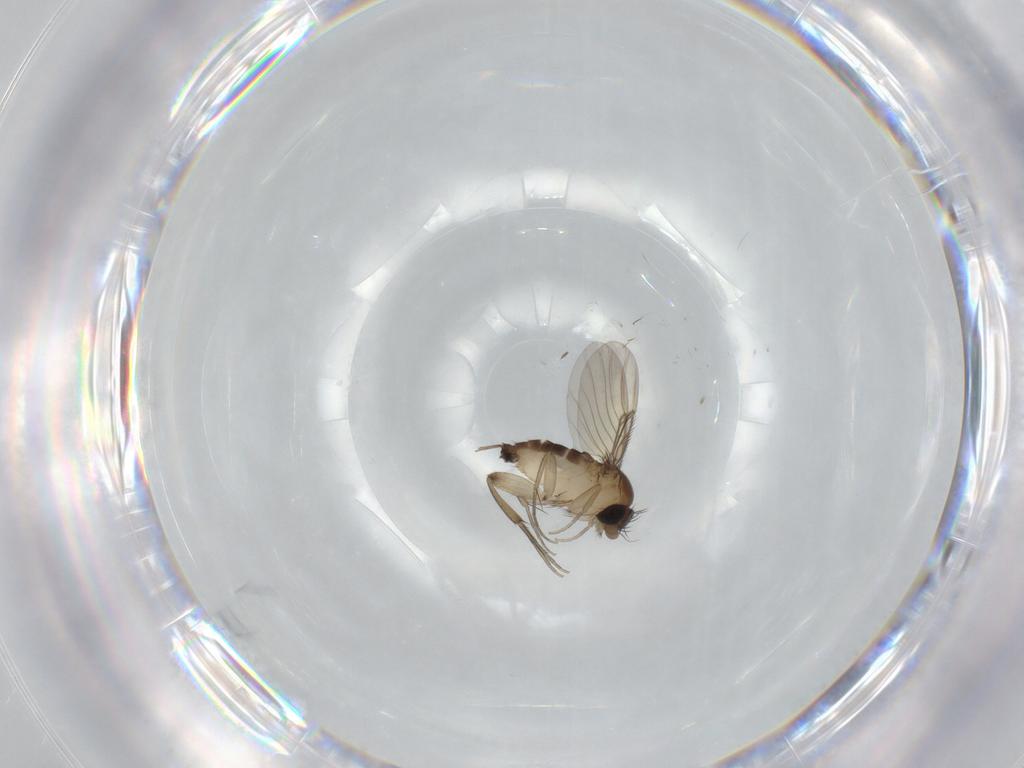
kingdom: Animalia
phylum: Arthropoda
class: Insecta
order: Diptera
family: Phoridae
